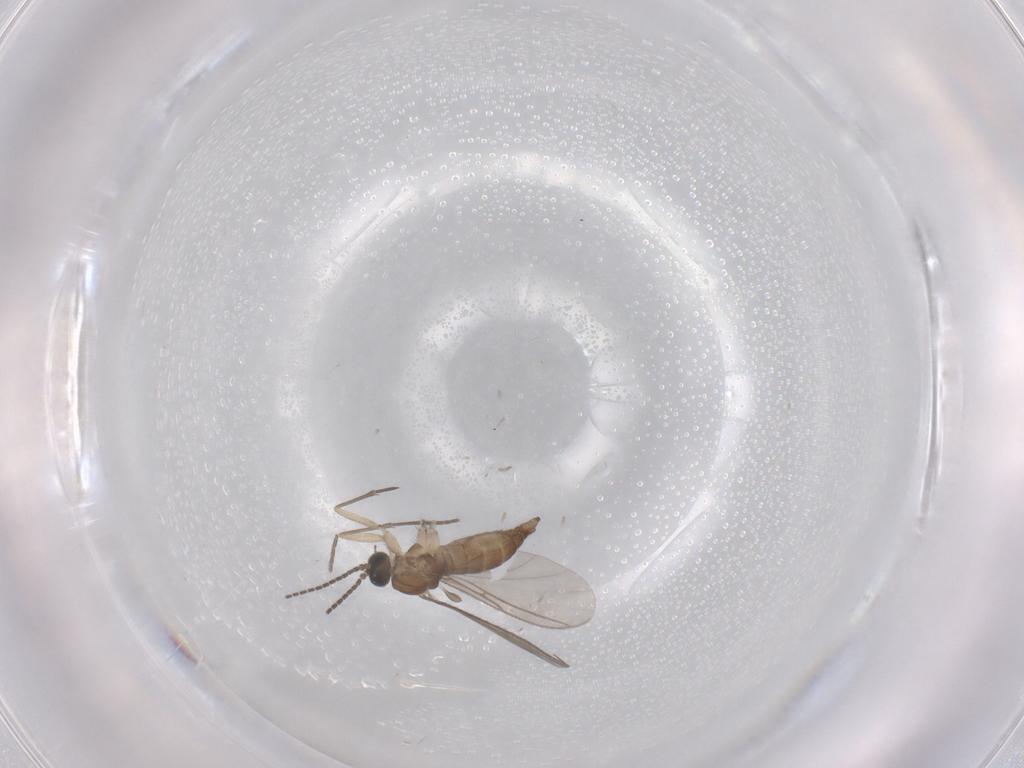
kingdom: Animalia
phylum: Arthropoda
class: Insecta
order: Diptera
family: Sciaridae
